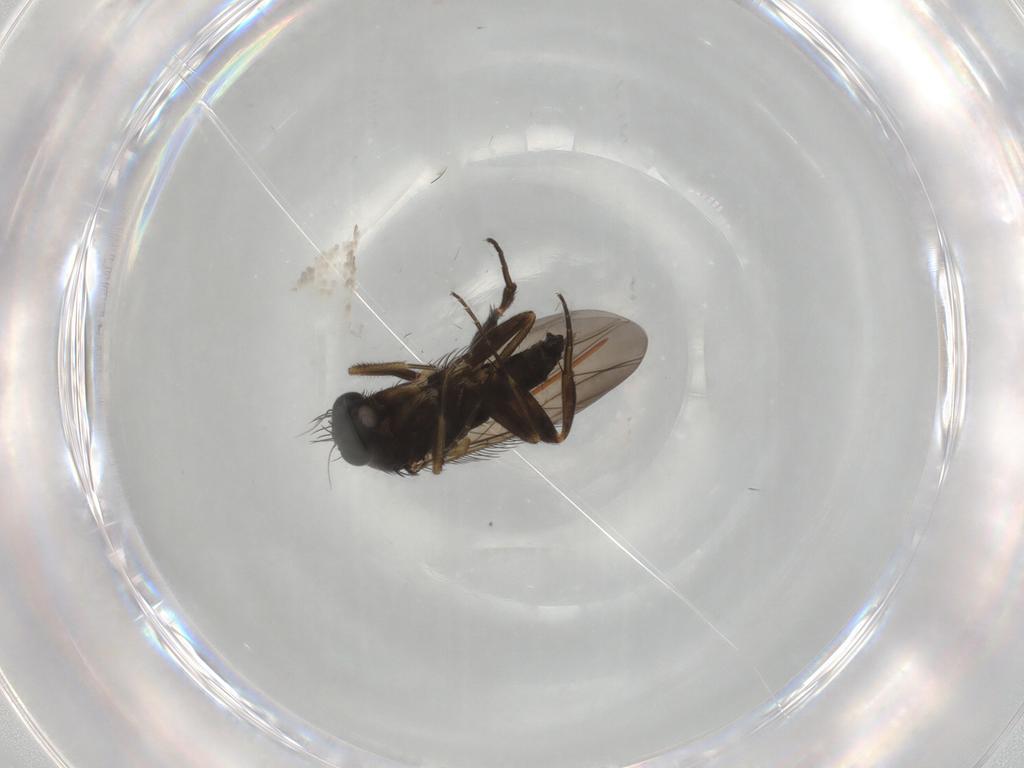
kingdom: Animalia
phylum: Arthropoda
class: Insecta
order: Diptera
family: Phoridae
